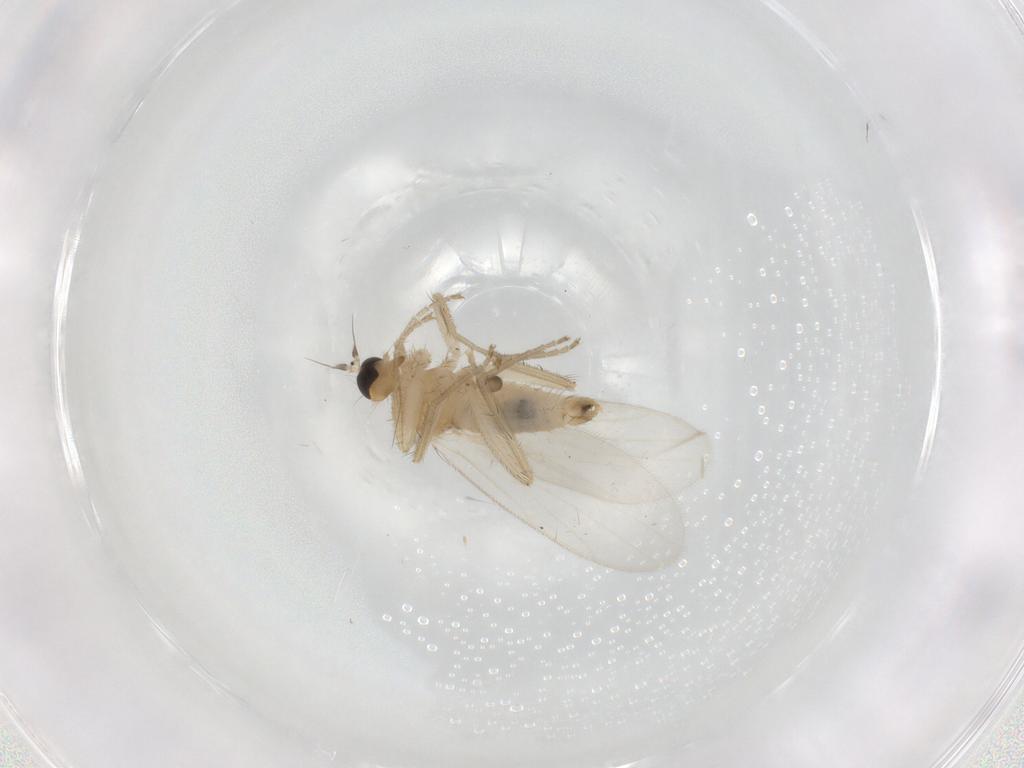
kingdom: Animalia
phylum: Arthropoda
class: Insecta
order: Diptera
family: Hybotidae
